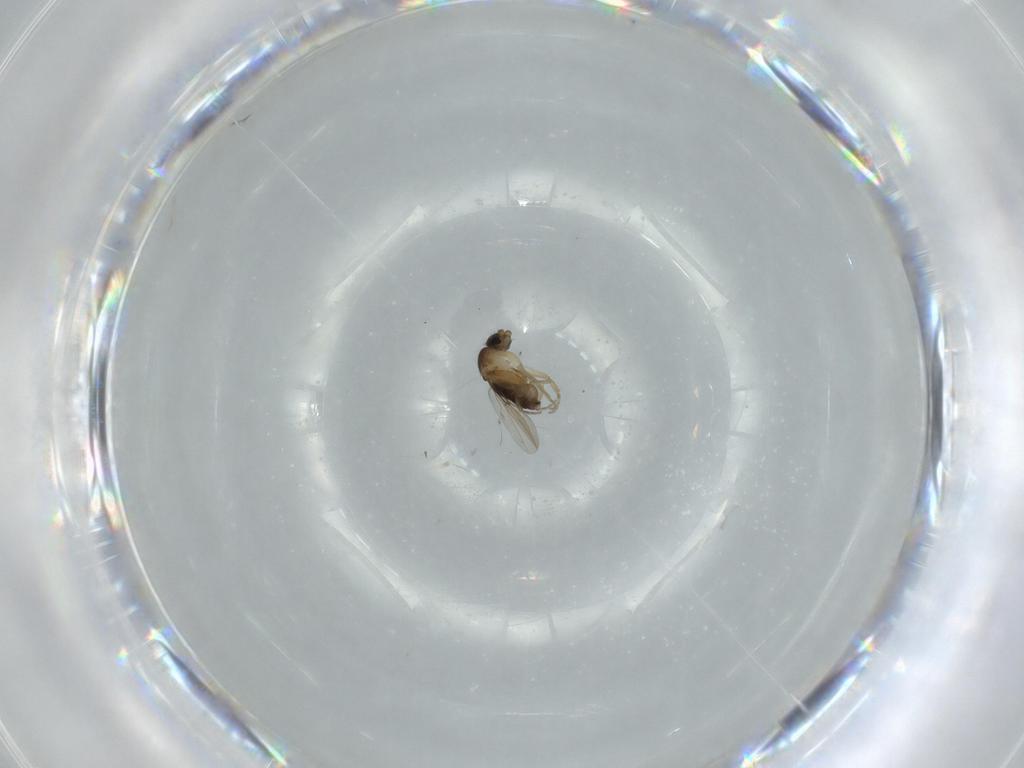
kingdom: Animalia
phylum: Arthropoda
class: Insecta
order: Diptera
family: Phoridae
